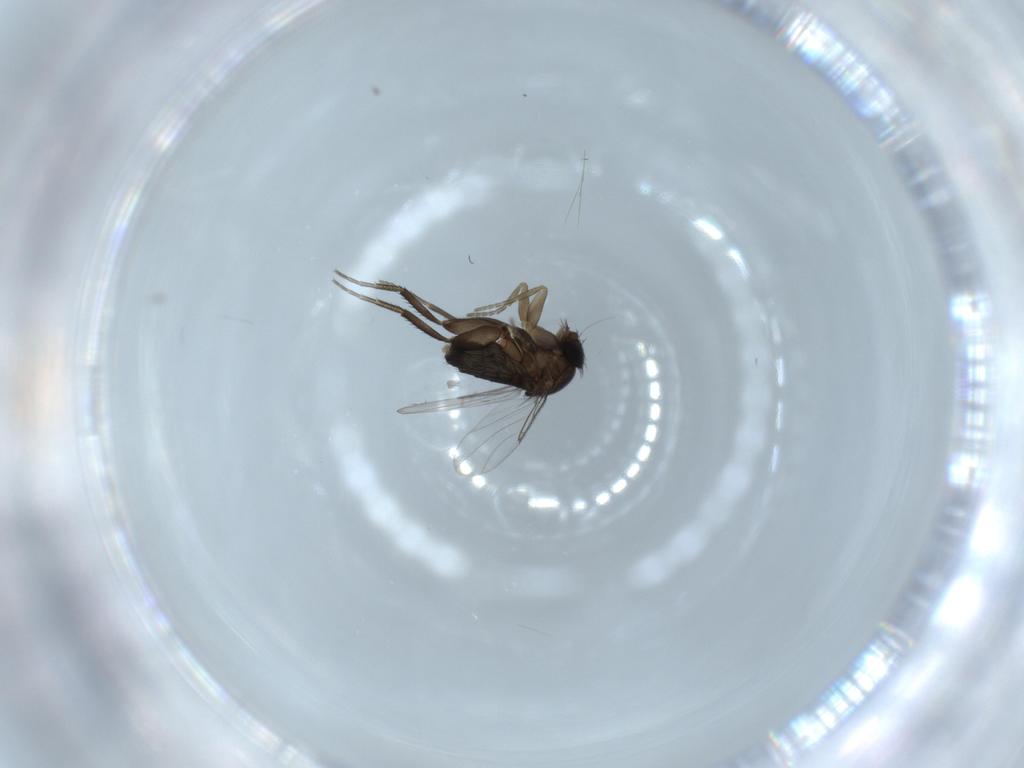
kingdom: Animalia
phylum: Arthropoda
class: Insecta
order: Diptera
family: Phoridae
